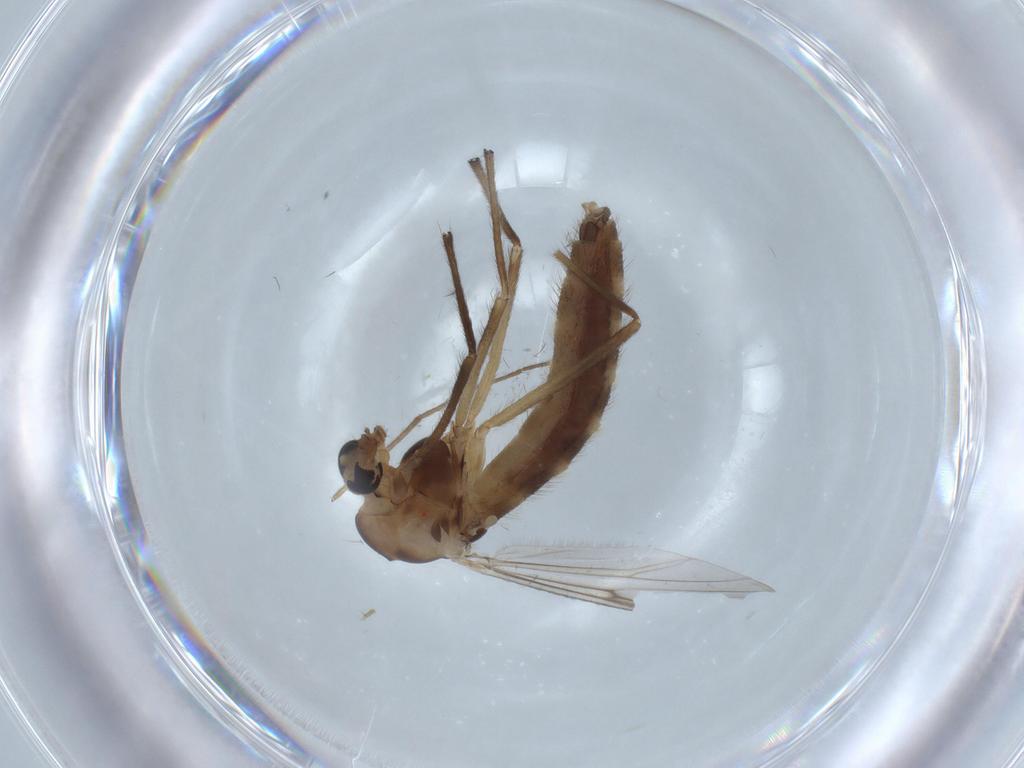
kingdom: Animalia
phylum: Arthropoda
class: Insecta
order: Diptera
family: Chironomidae
